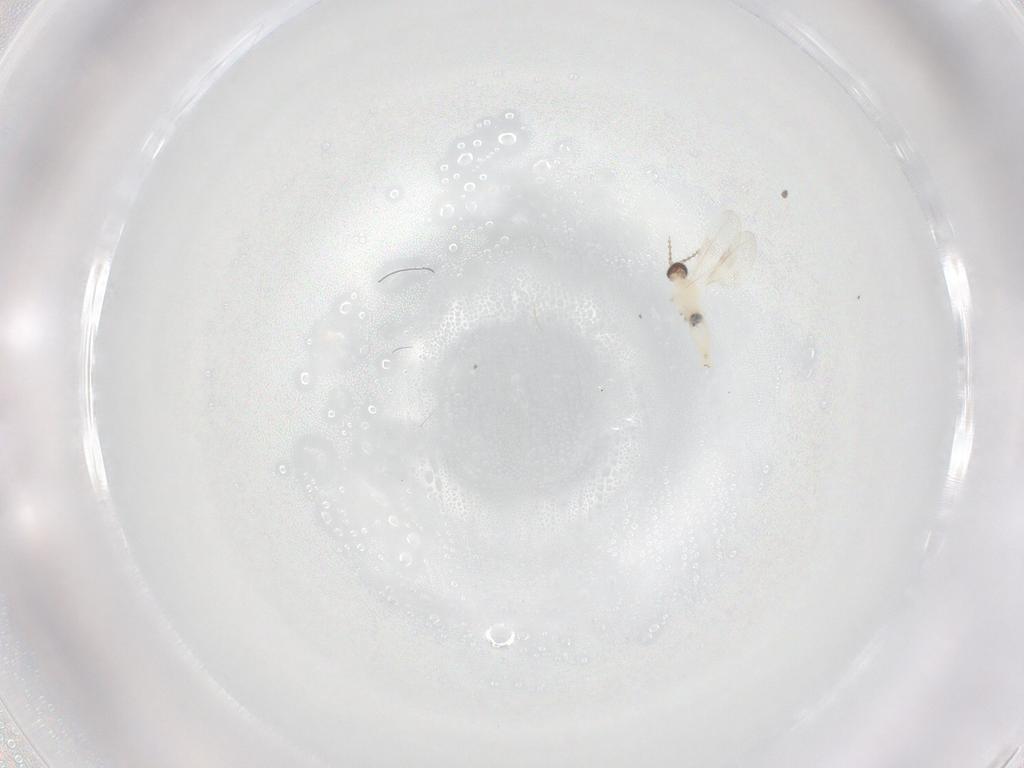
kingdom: Animalia
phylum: Arthropoda
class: Insecta
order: Diptera
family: Cecidomyiidae
